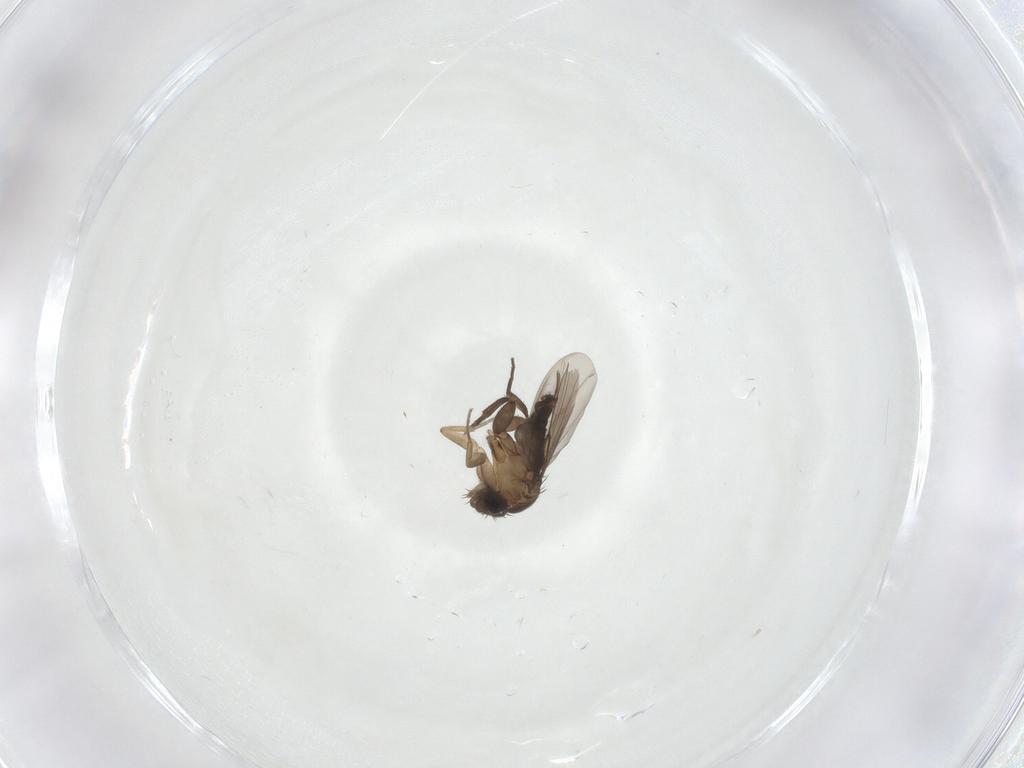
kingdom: Animalia
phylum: Arthropoda
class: Insecta
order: Diptera
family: Phoridae
